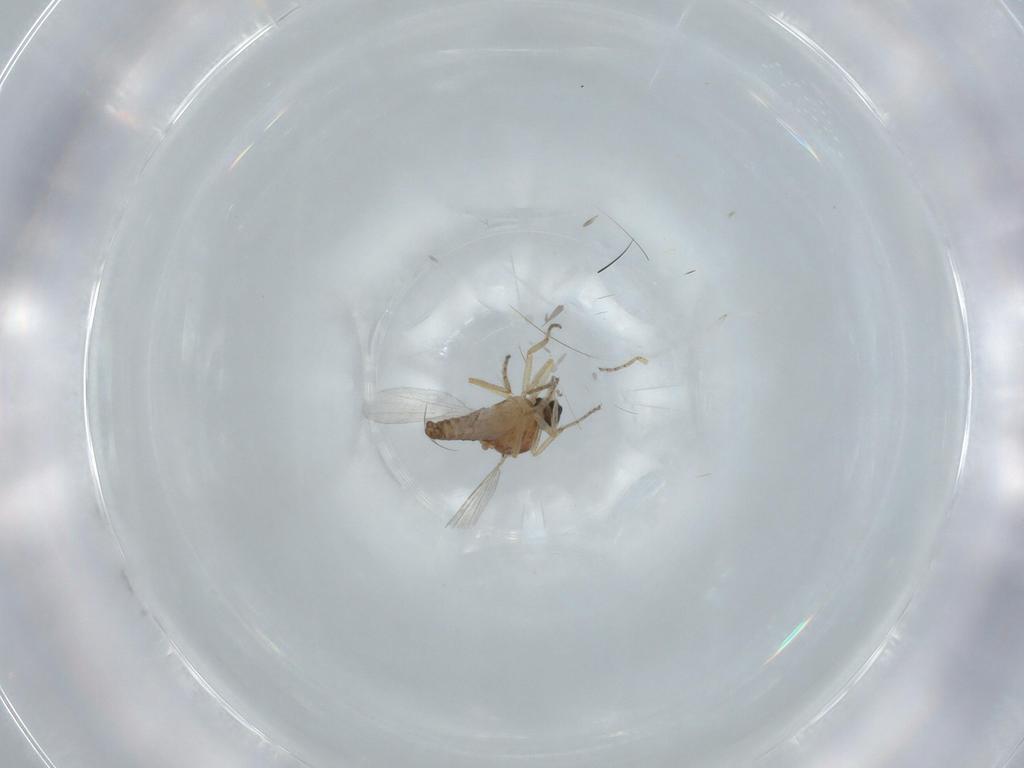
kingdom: Animalia
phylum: Arthropoda
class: Insecta
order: Diptera
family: Ceratopogonidae
